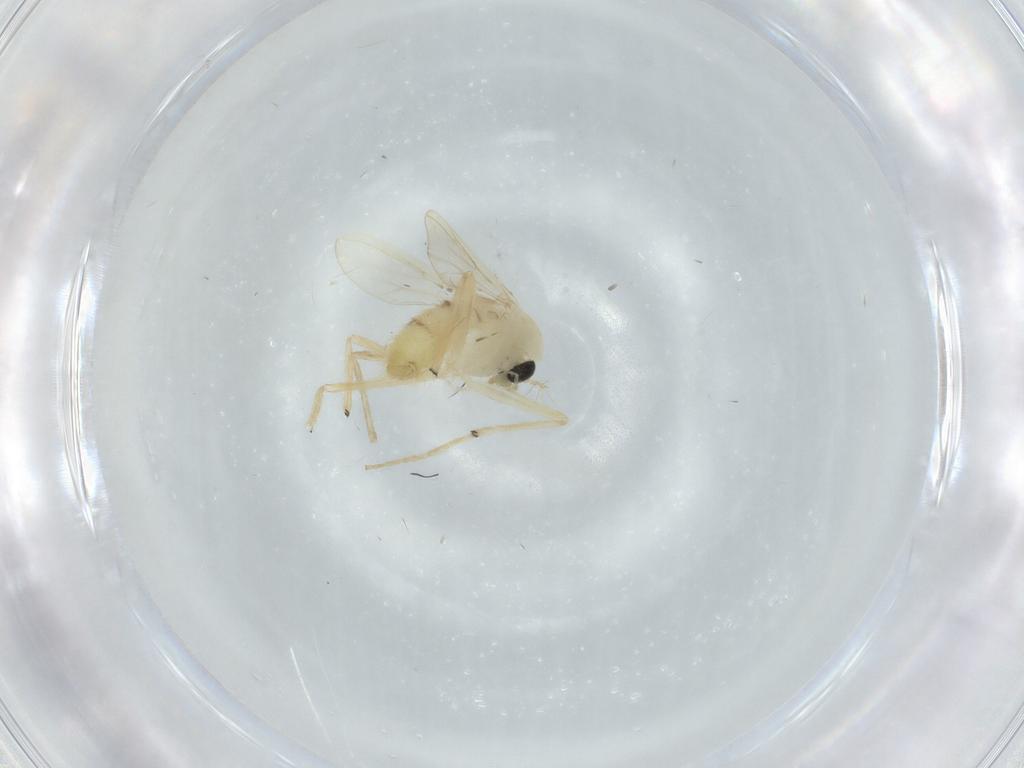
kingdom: Animalia
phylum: Arthropoda
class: Insecta
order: Diptera
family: Chironomidae
